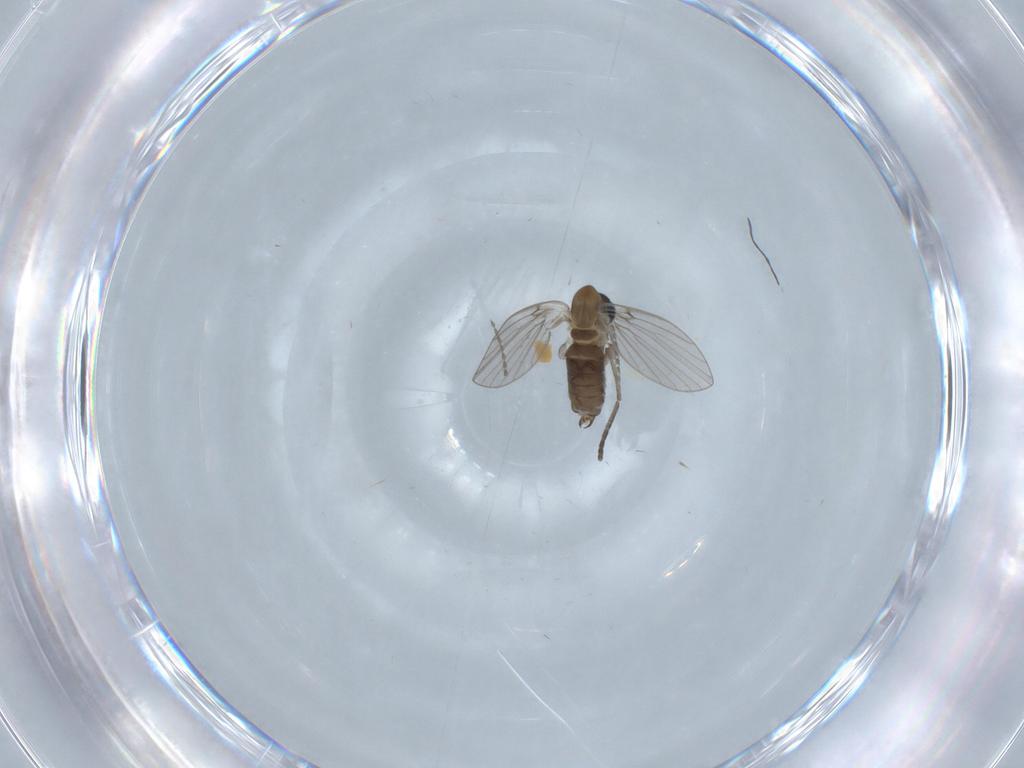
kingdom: Animalia
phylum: Arthropoda
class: Insecta
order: Diptera
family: Psychodidae
